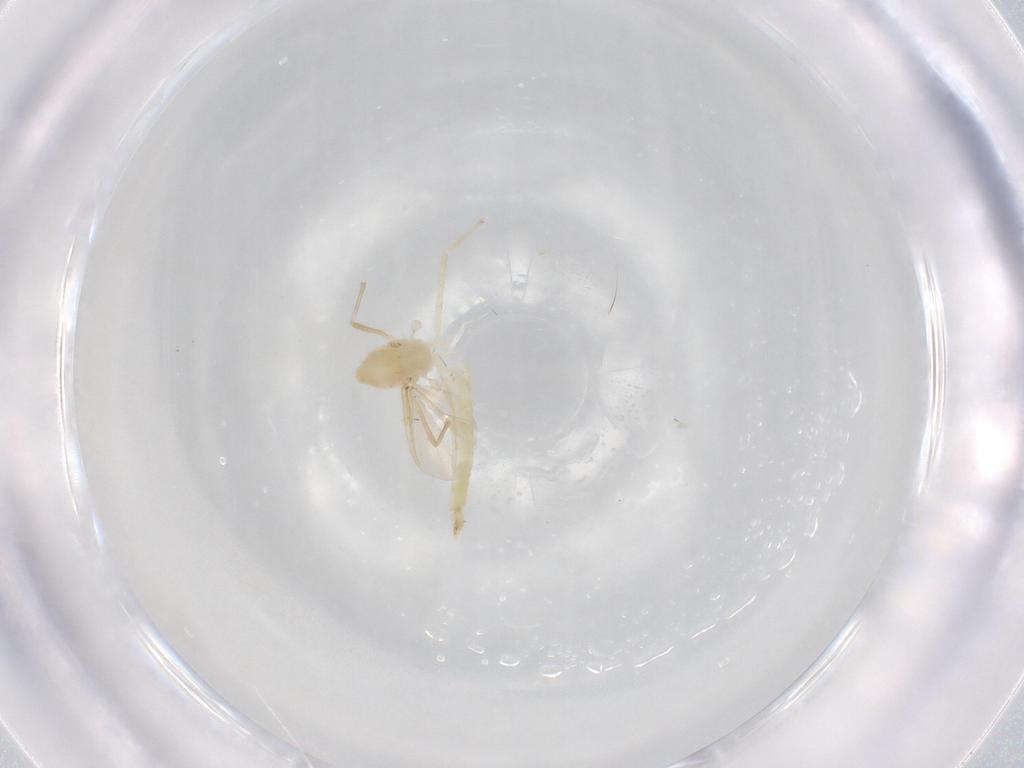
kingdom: Animalia
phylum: Arthropoda
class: Insecta
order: Diptera
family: Chironomidae
